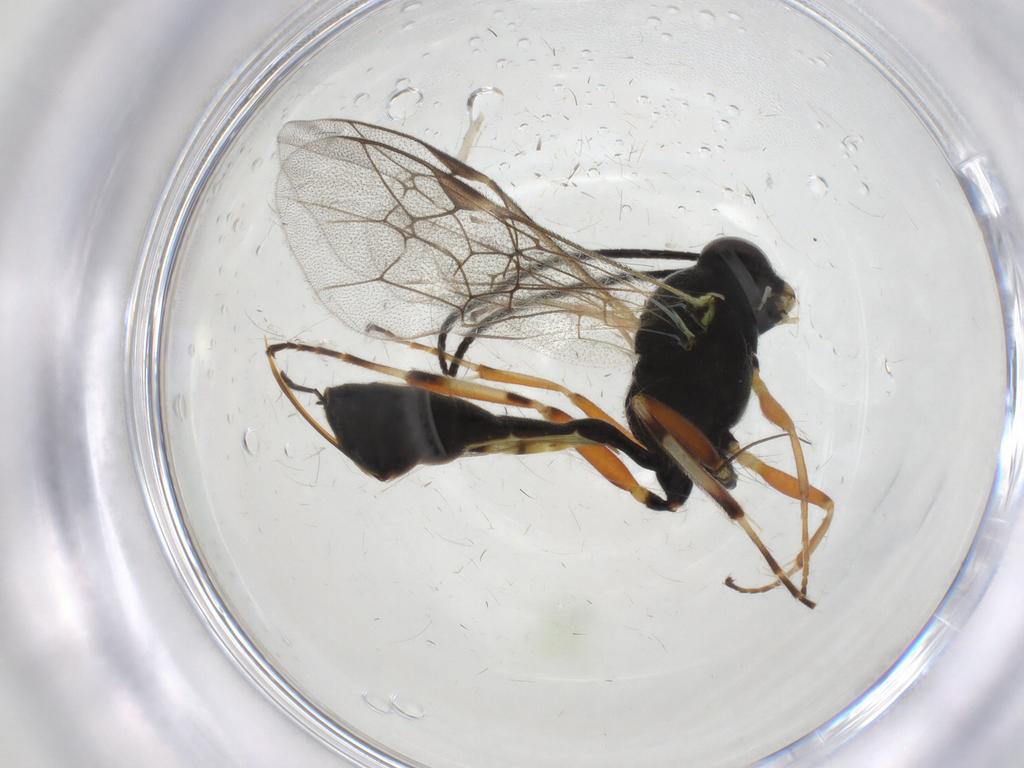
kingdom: Animalia
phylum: Arthropoda
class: Insecta
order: Hymenoptera
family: Ichneumonidae
